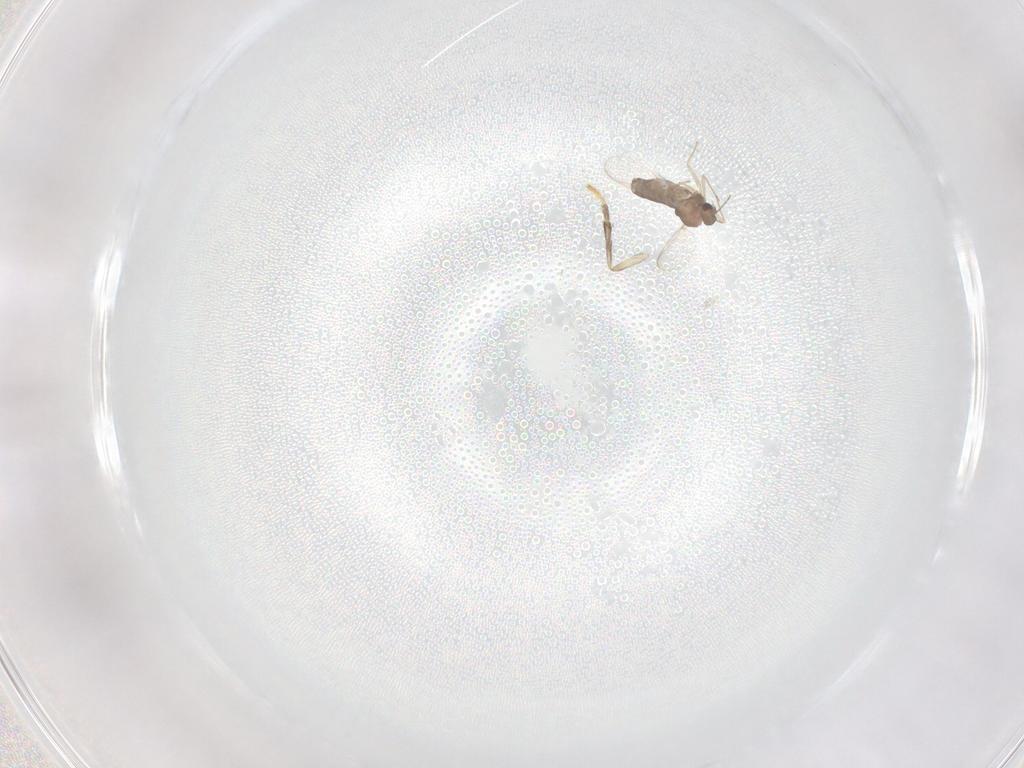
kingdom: Animalia
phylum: Arthropoda
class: Insecta
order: Diptera
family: Psychodidae
